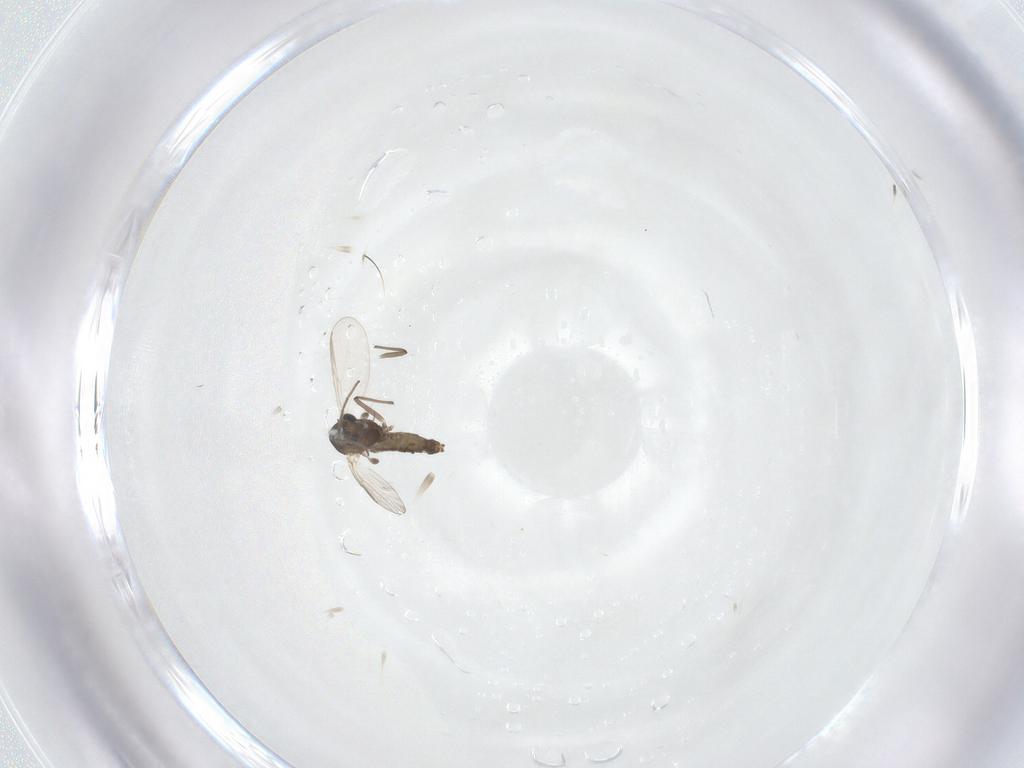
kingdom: Animalia
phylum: Arthropoda
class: Insecta
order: Diptera
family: Chironomidae
